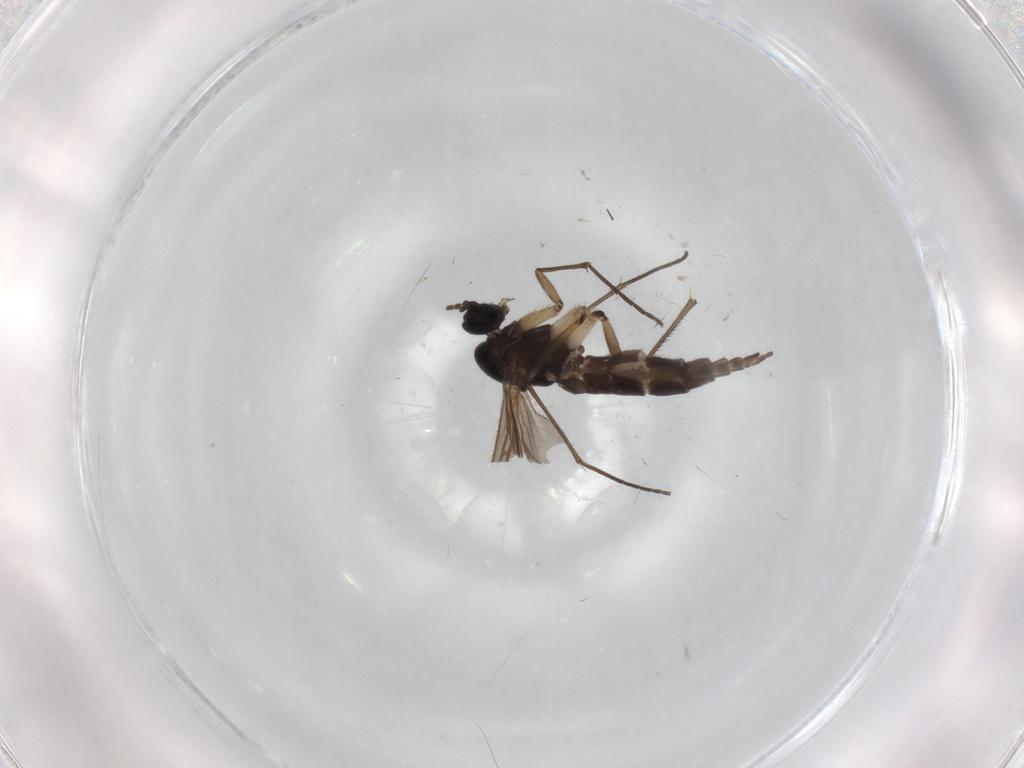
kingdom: Animalia
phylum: Arthropoda
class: Insecta
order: Diptera
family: Sciaridae
